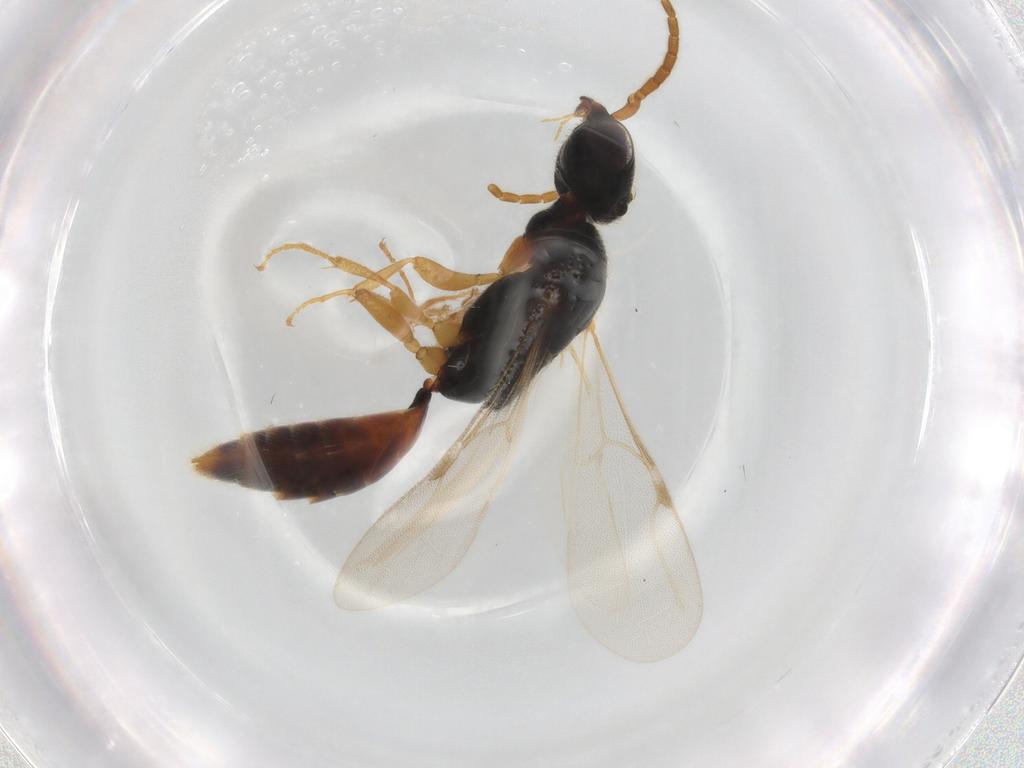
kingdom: Animalia
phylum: Arthropoda
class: Insecta
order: Hymenoptera
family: Bethylidae
